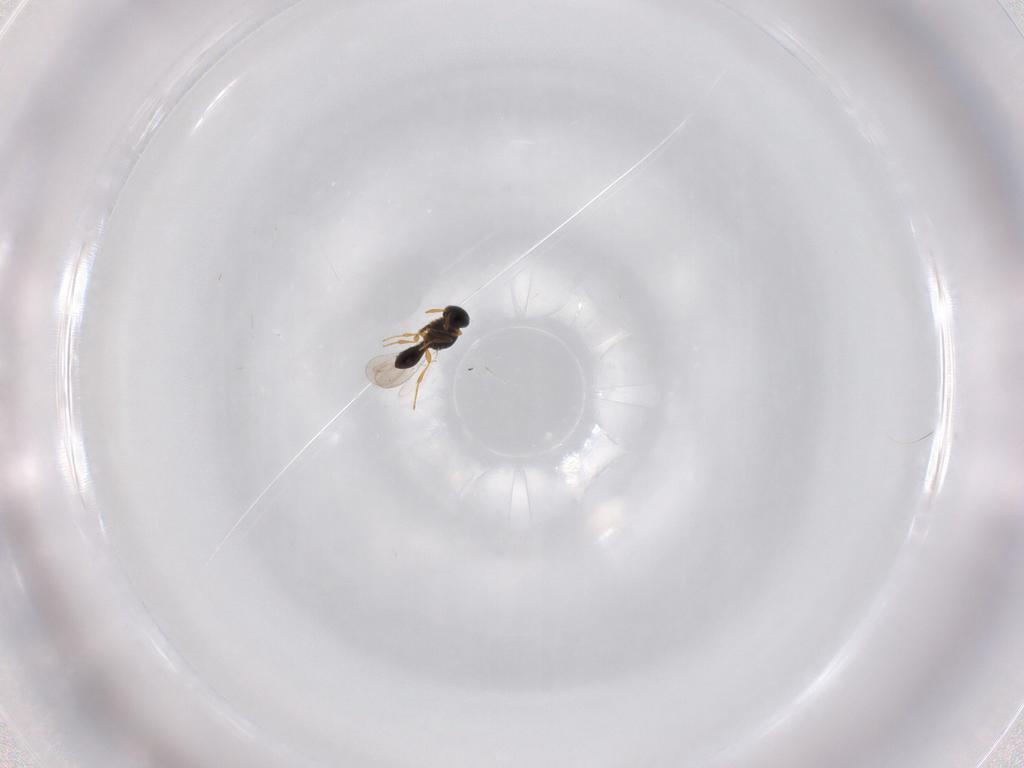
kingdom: Animalia
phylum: Arthropoda
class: Insecta
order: Hymenoptera
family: Platygastridae
